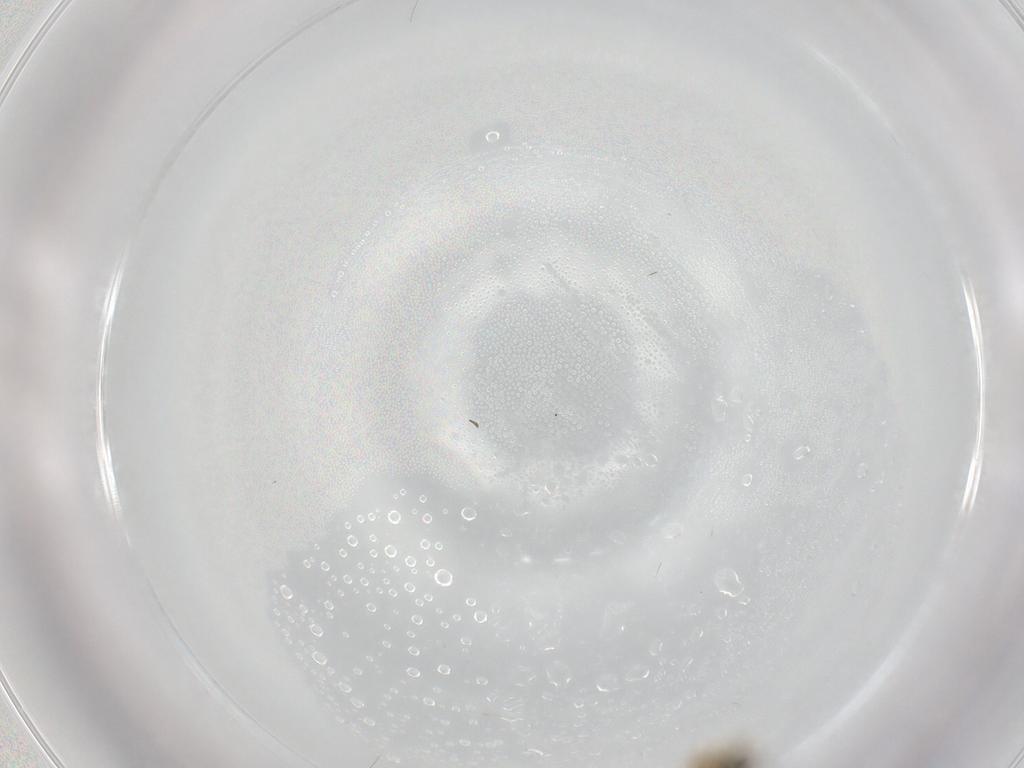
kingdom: Animalia
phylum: Arthropoda
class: Insecta
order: Diptera
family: Ceratopogonidae
